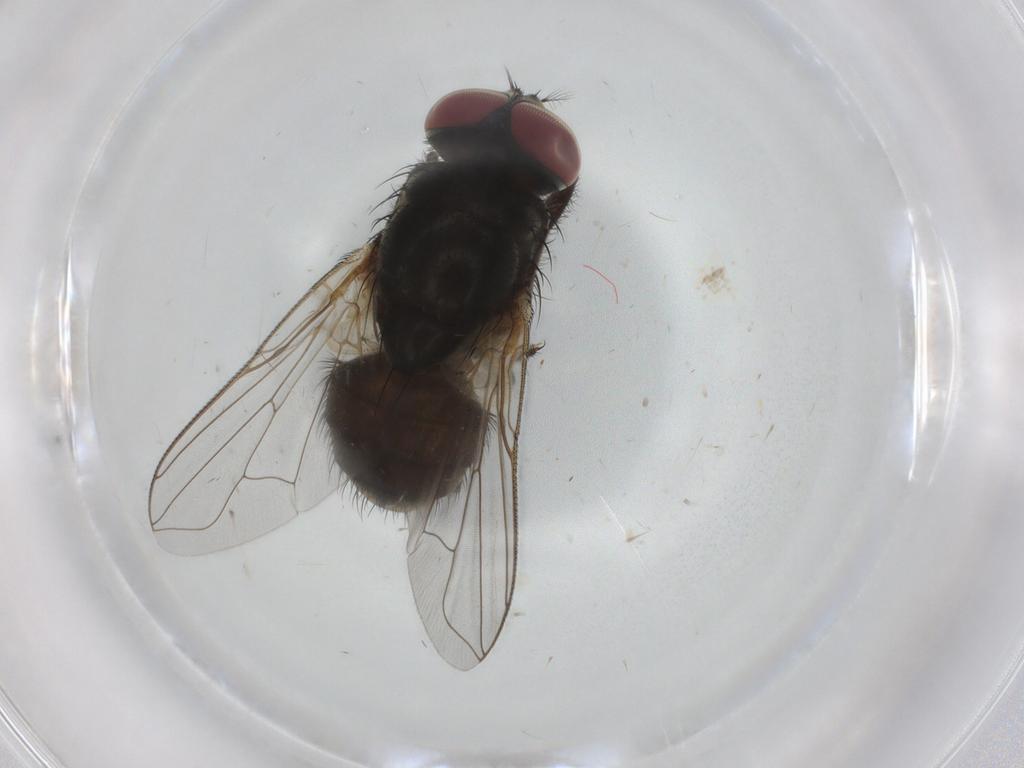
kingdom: Animalia
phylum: Arthropoda
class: Insecta
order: Diptera
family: Muscidae
